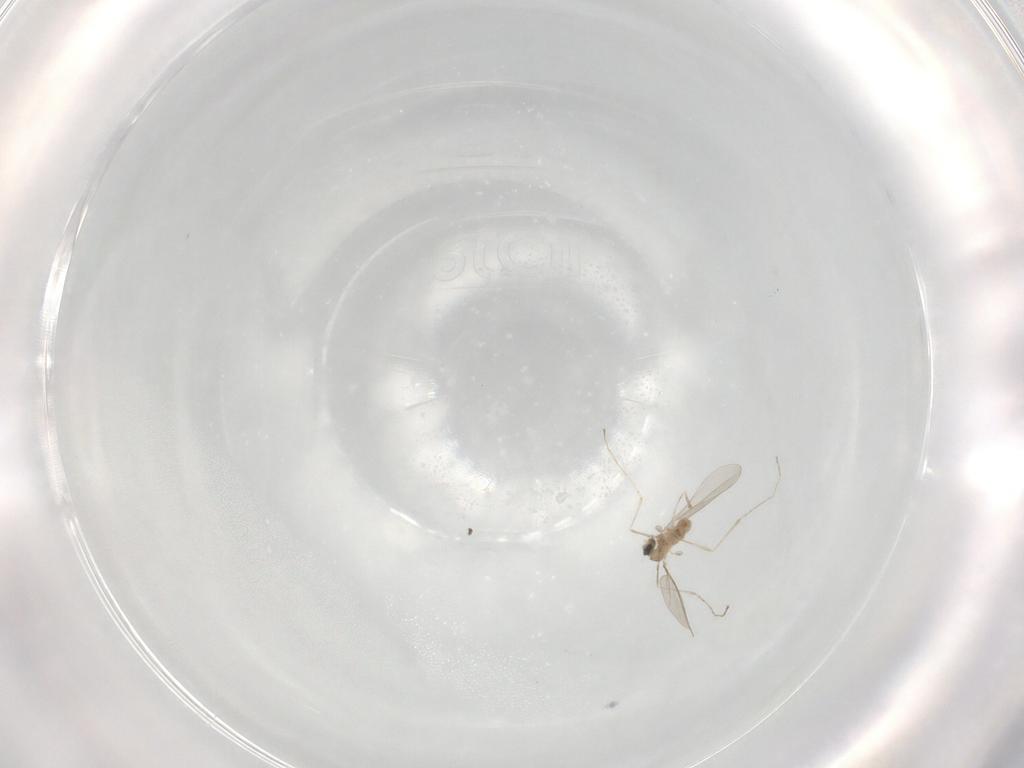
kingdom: Animalia
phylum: Arthropoda
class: Insecta
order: Diptera
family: Cecidomyiidae
